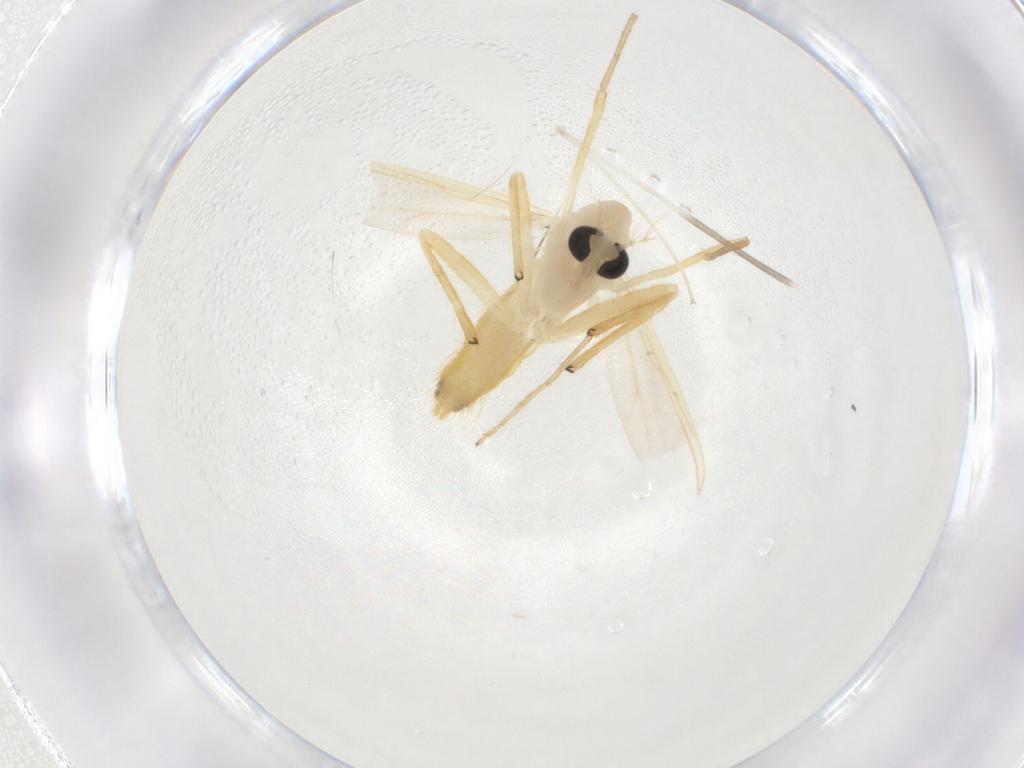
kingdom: Animalia
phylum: Arthropoda
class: Insecta
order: Diptera
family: Chironomidae
